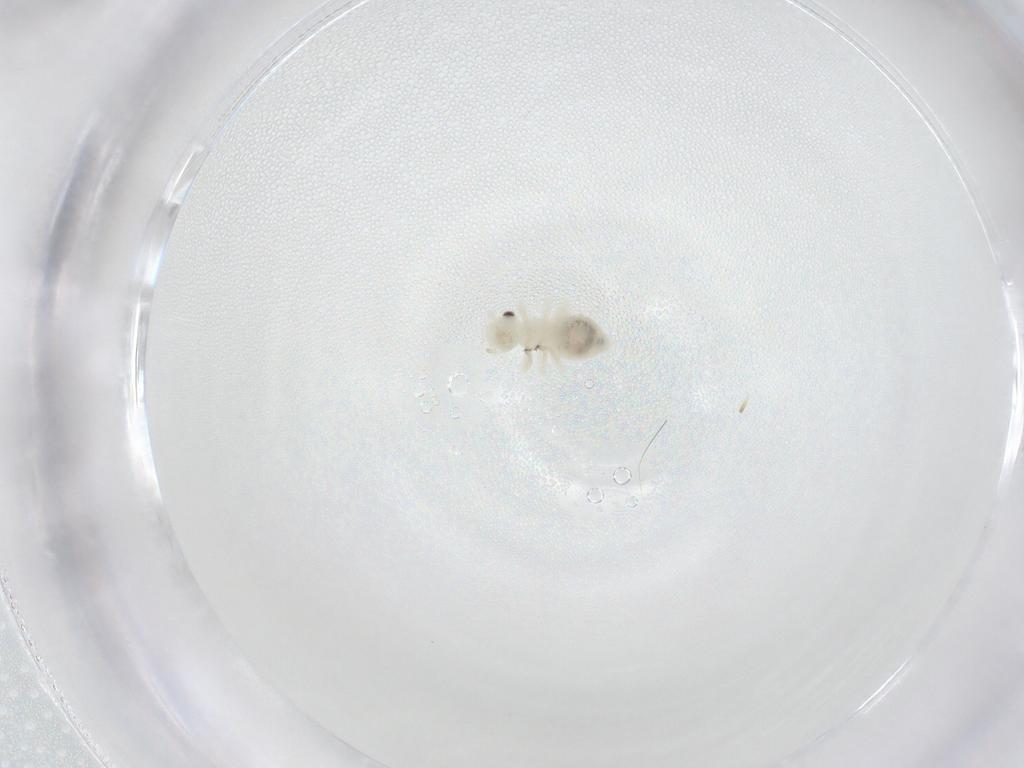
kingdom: Animalia
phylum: Arthropoda
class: Insecta
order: Psocodea
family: Caeciliusidae
